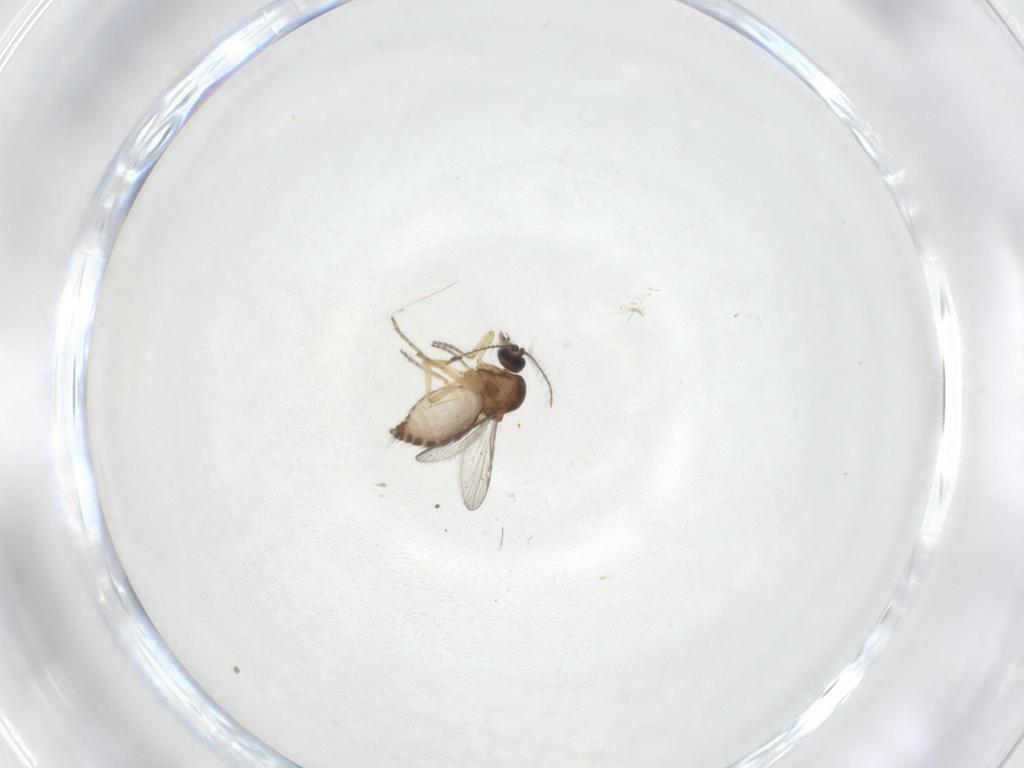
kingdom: Animalia
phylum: Arthropoda
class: Insecta
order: Diptera
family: Ceratopogonidae
